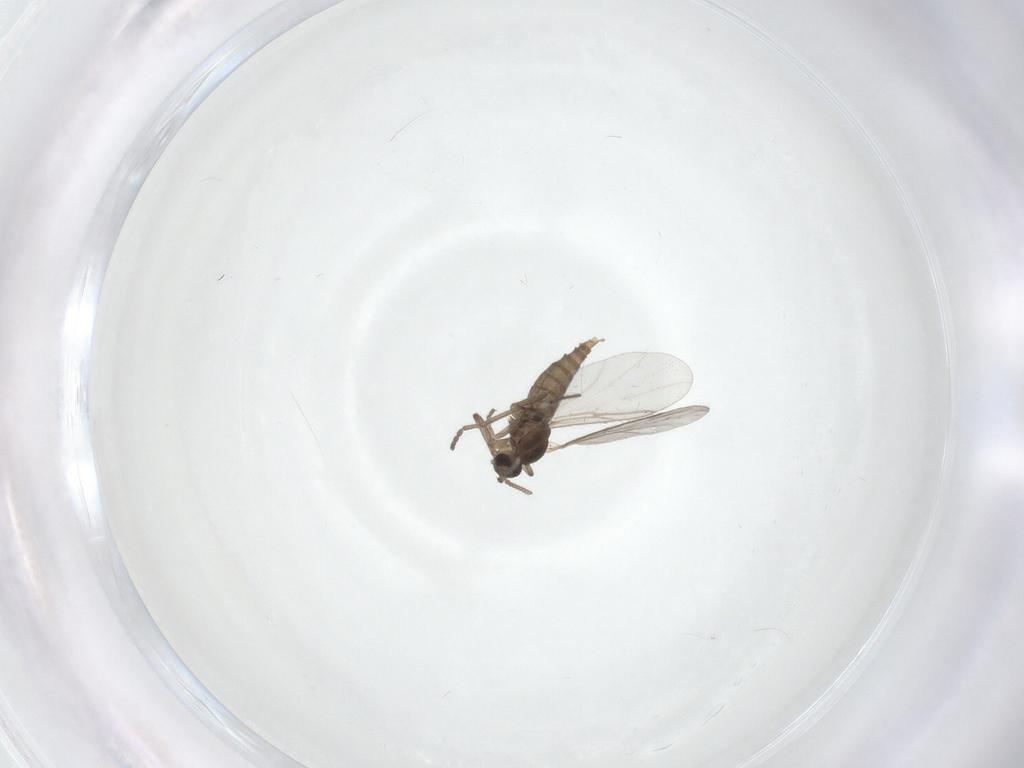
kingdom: Animalia
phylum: Arthropoda
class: Insecta
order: Diptera
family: Cecidomyiidae
